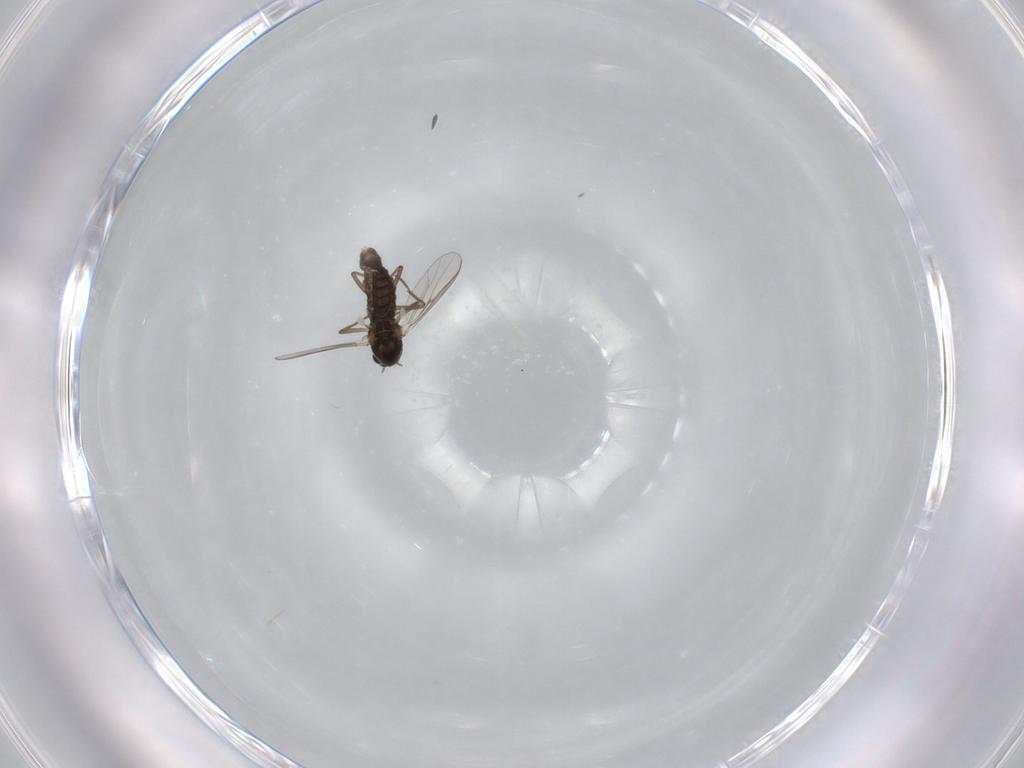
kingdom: Animalia
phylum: Arthropoda
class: Insecta
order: Diptera
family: Chironomidae
